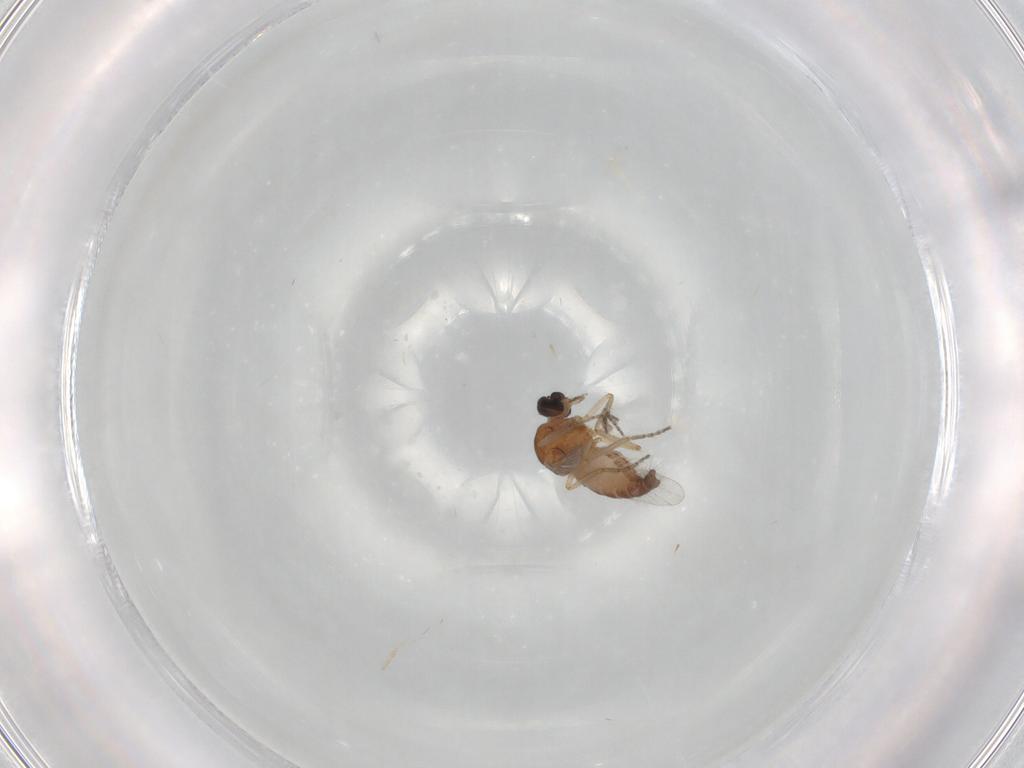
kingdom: Animalia
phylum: Arthropoda
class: Insecta
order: Diptera
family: Ceratopogonidae
